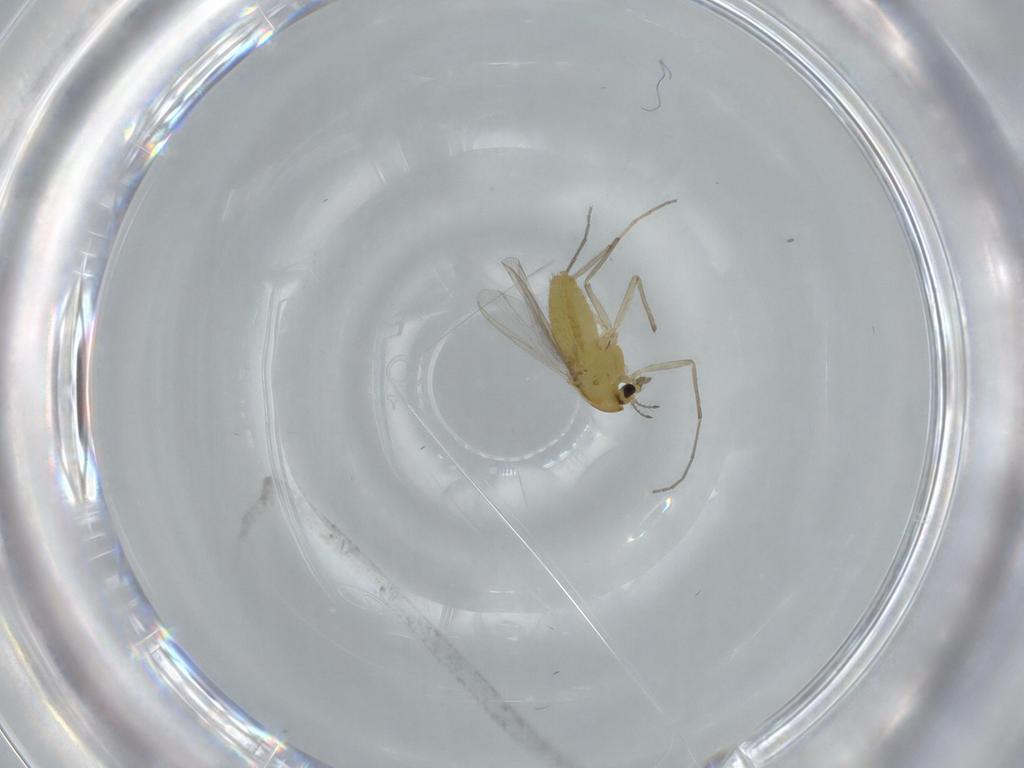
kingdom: Animalia
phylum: Arthropoda
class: Insecta
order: Diptera
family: Chironomidae
